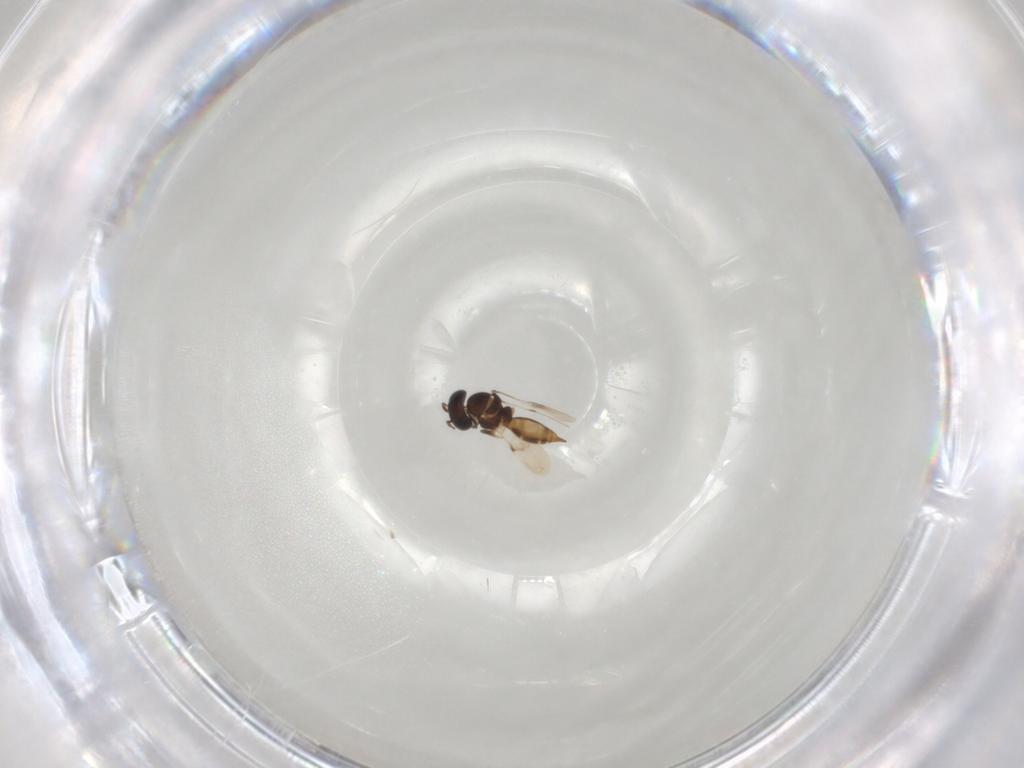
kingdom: Animalia
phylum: Arthropoda
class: Insecta
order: Hymenoptera
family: Scelionidae
